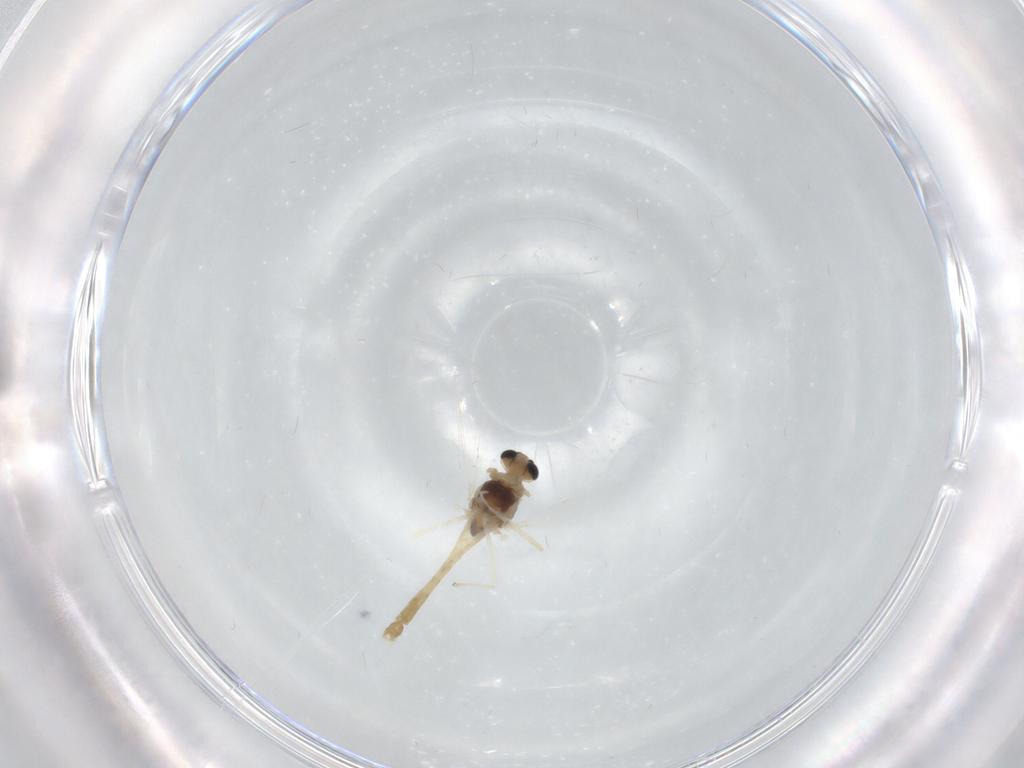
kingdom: Animalia
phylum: Arthropoda
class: Insecta
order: Diptera
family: Chironomidae
